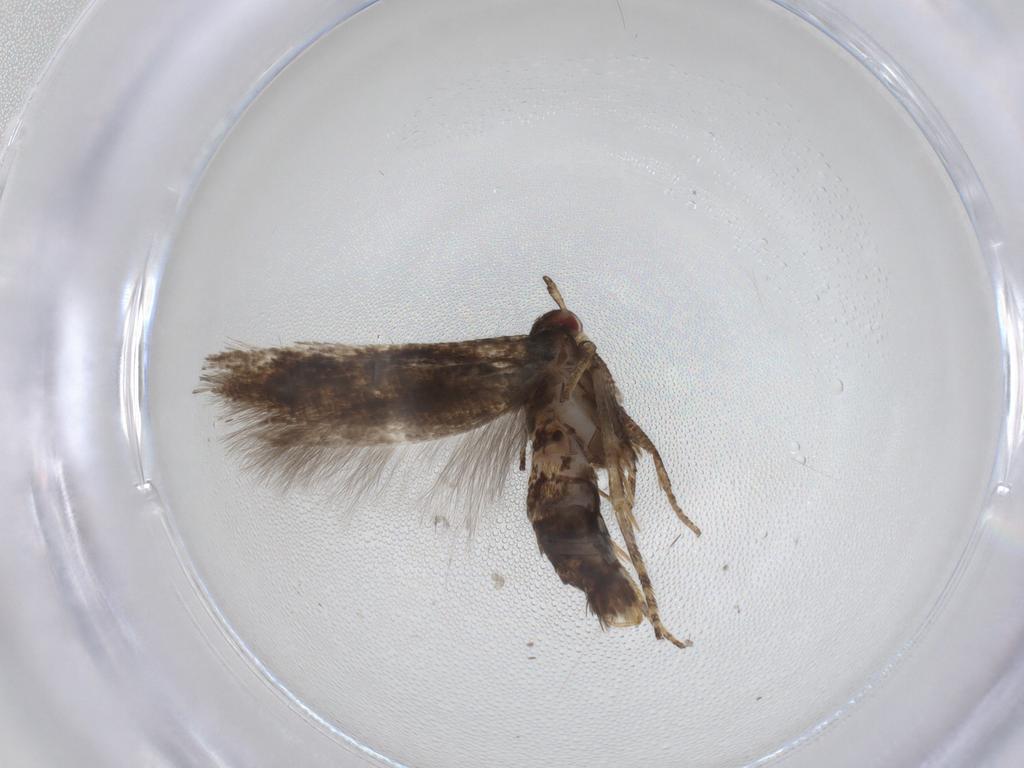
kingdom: Animalia
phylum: Arthropoda
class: Insecta
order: Lepidoptera
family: Momphidae
